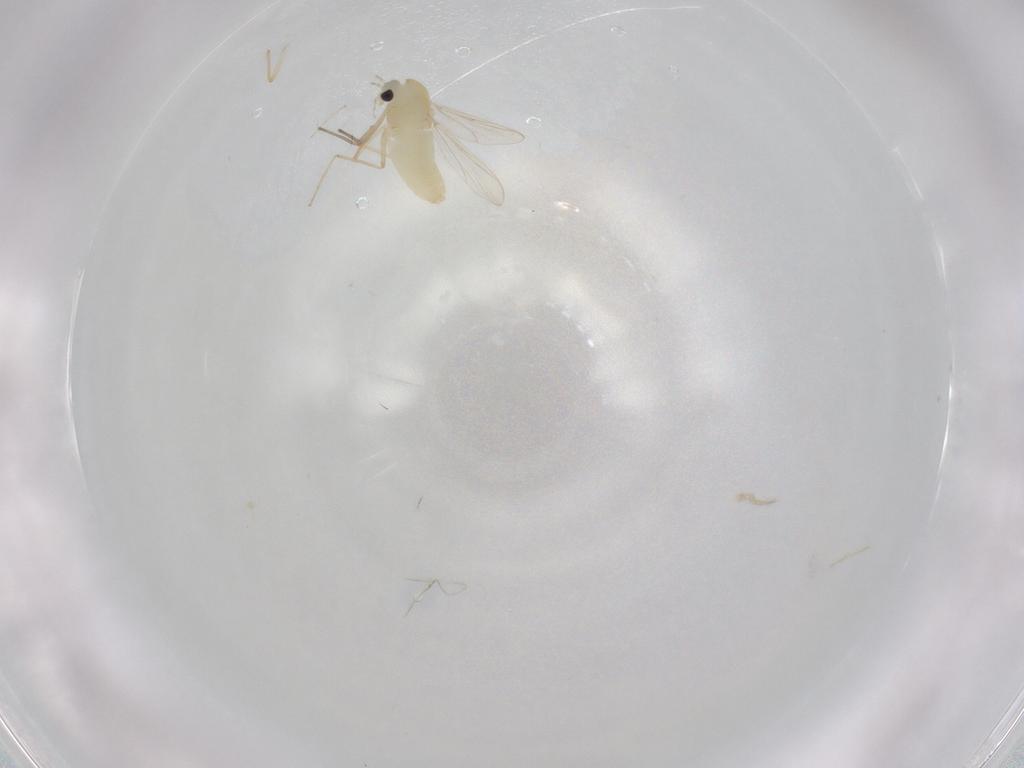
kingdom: Animalia
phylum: Arthropoda
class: Insecta
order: Diptera
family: Chironomidae
